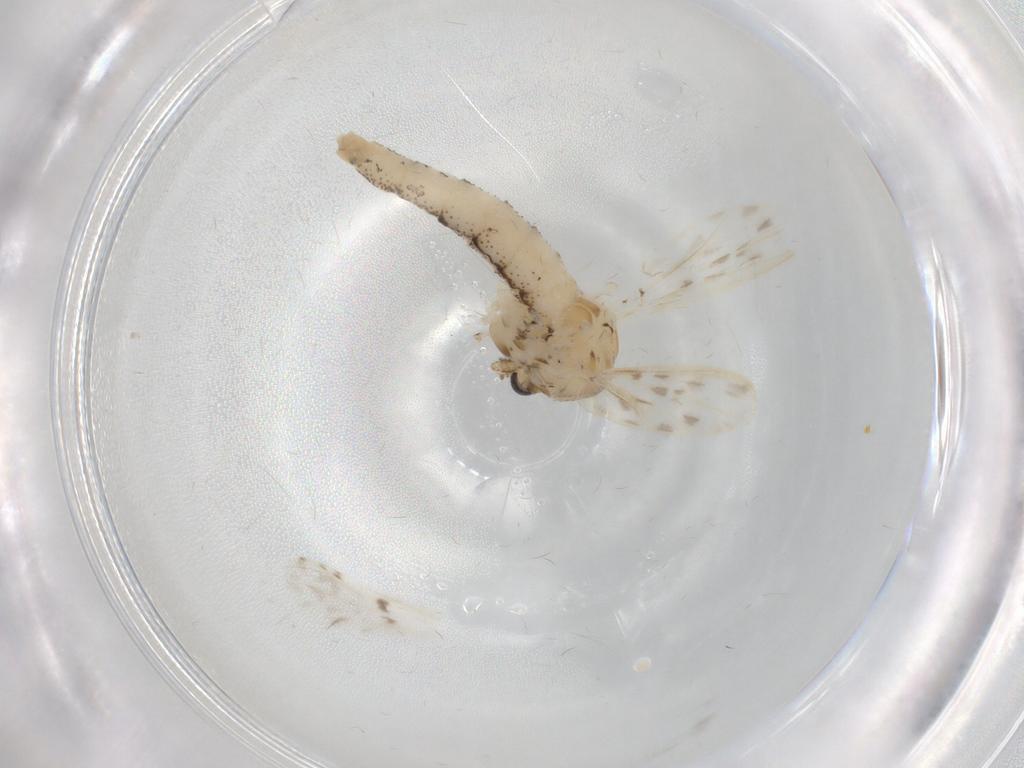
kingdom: Animalia
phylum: Arthropoda
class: Insecta
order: Diptera
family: Chaoboridae
